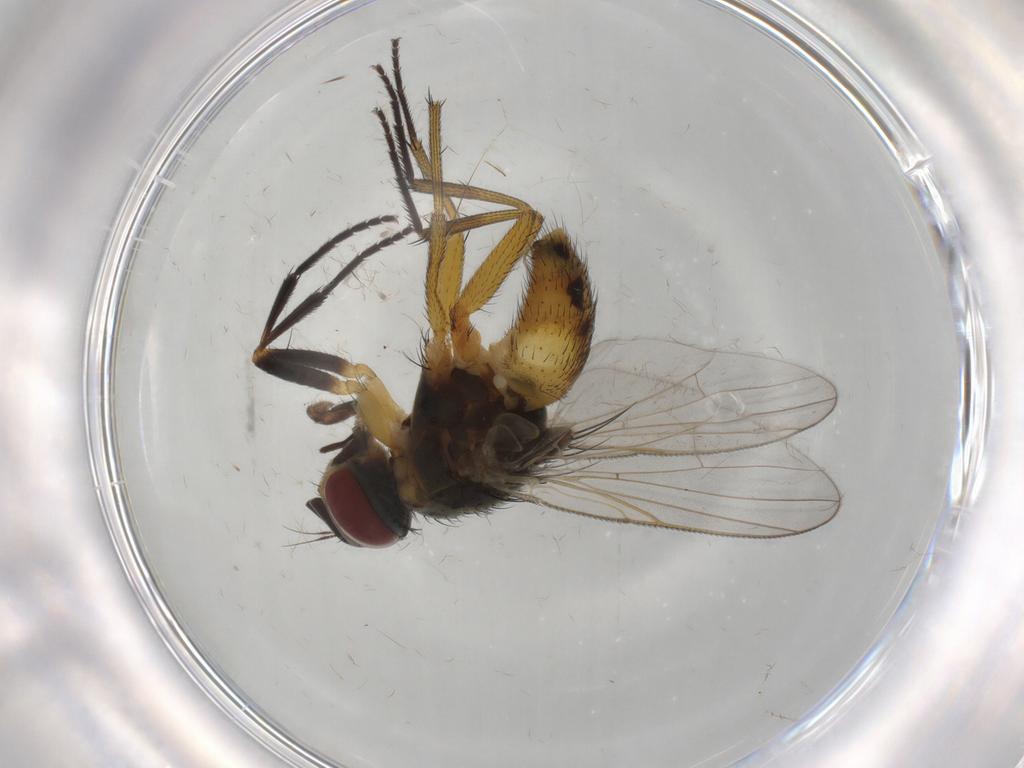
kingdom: Animalia
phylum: Arthropoda
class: Insecta
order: Diptera
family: Muscidae
